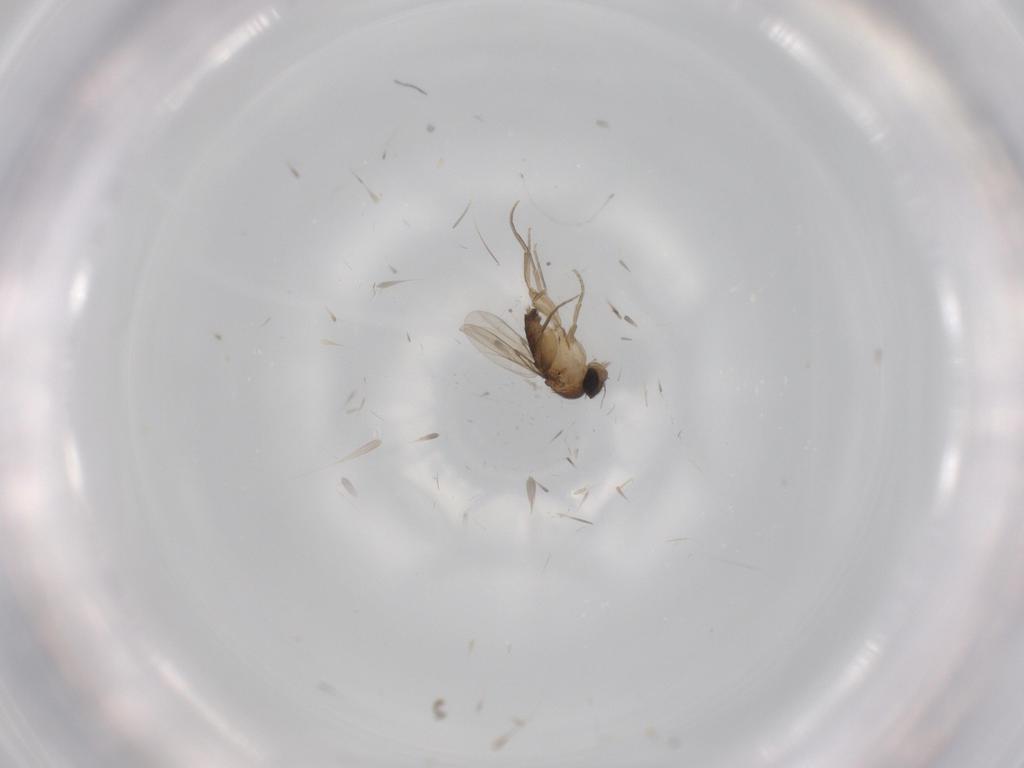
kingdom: Animalia
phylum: Arthropoda
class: Insecta
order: Diptera
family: Phoridae
